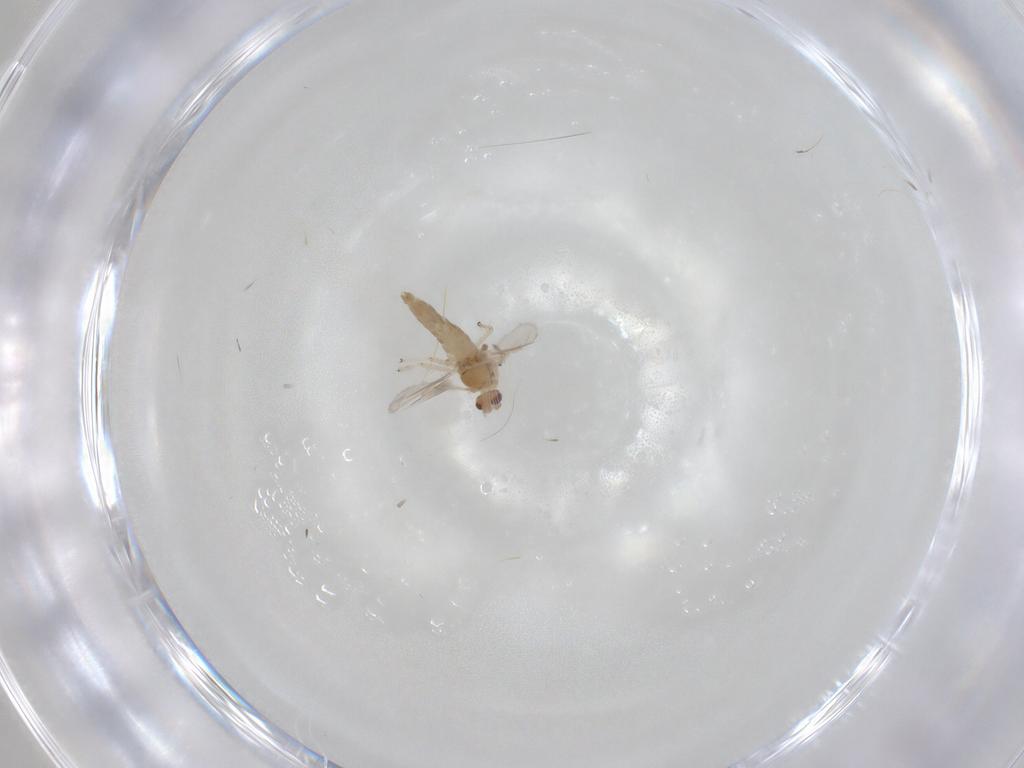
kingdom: Animalia
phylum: Arthropoda
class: Insecta
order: Diptera
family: Chironomidae
